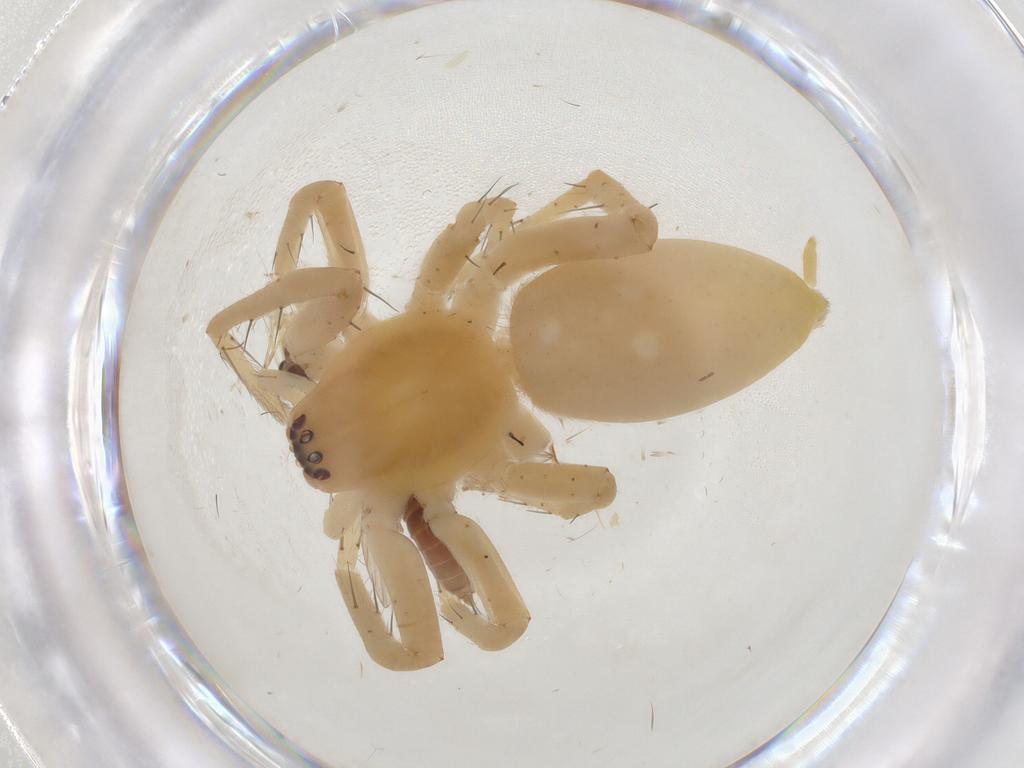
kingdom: Animalia
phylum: Arthropoda
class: Arachnida
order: Araneae
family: Anyphaenidae
